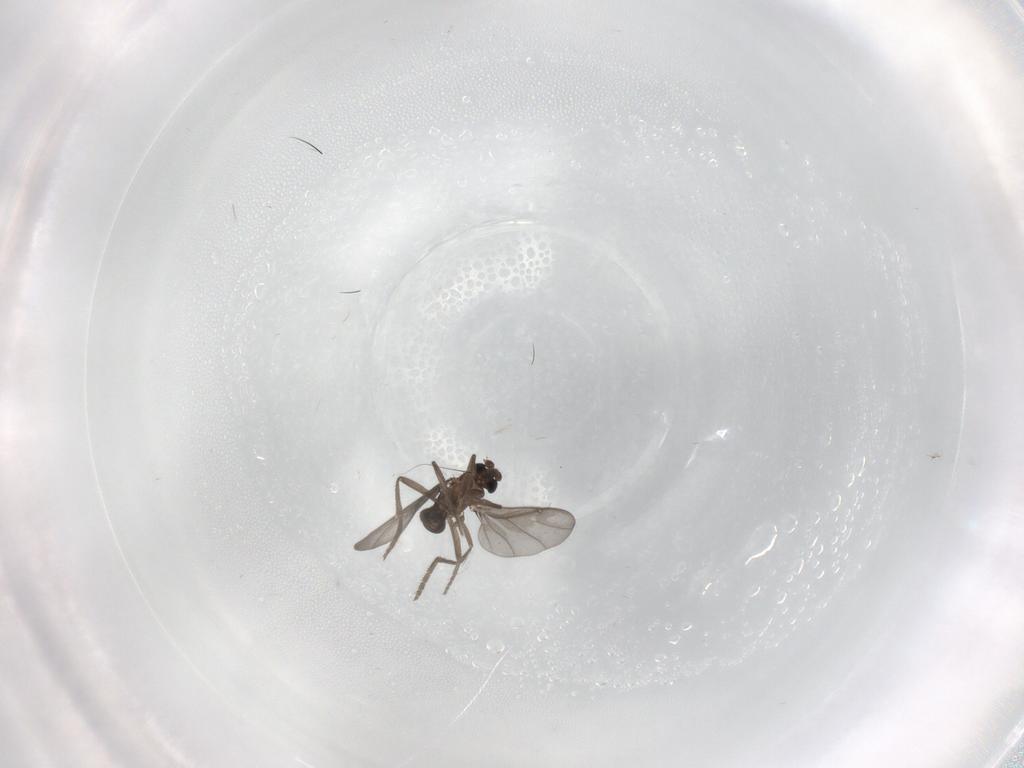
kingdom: Animalia
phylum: Arthropoda
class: Insecta
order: Diptera
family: Phoridae
